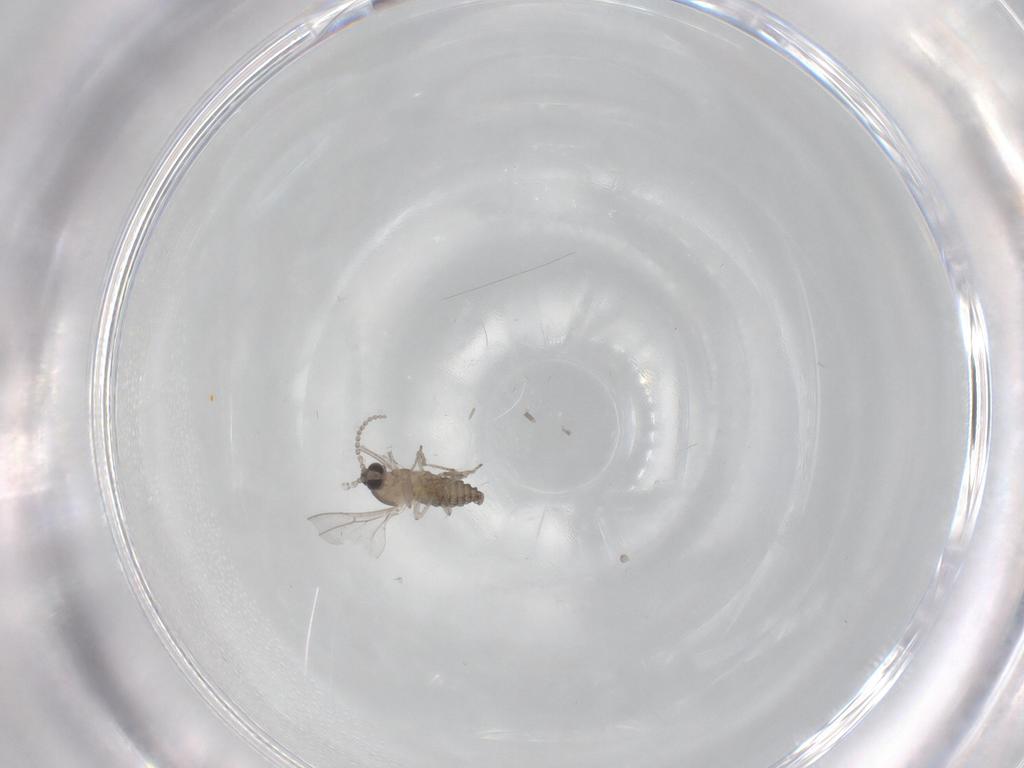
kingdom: Animalia
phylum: Arthropoda
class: Insecta
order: Diptera
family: Cecidomyiidae
